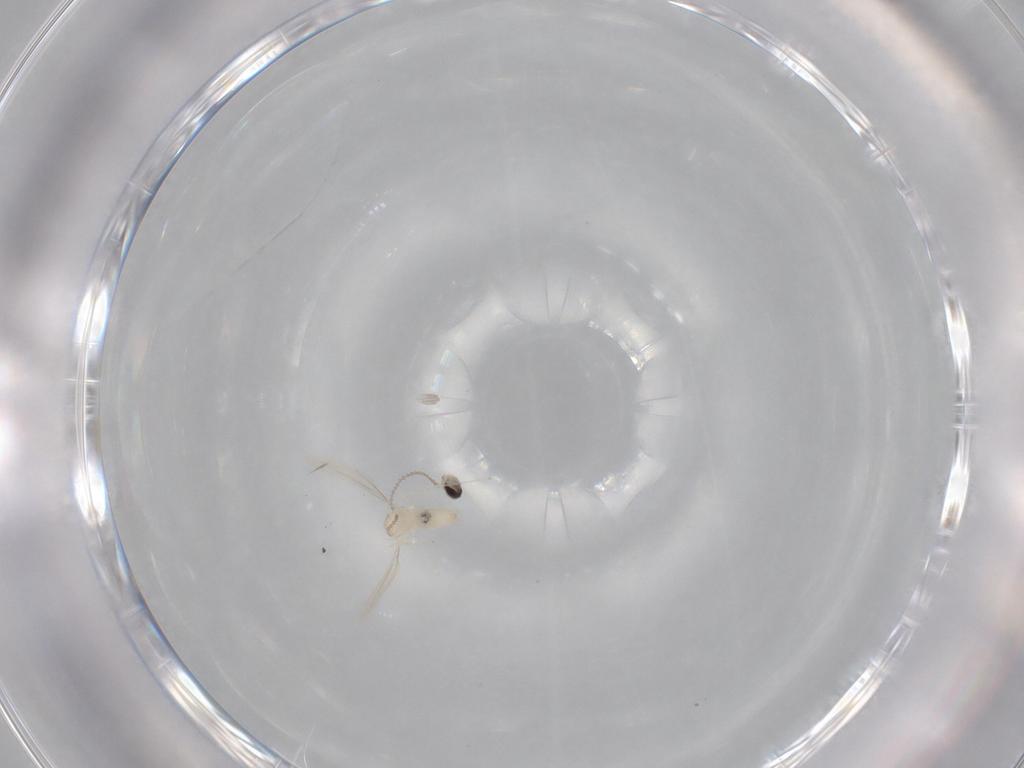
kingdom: Animalia
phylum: Arthropoda
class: Insecta
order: Diptera
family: Cecidomyiidae
